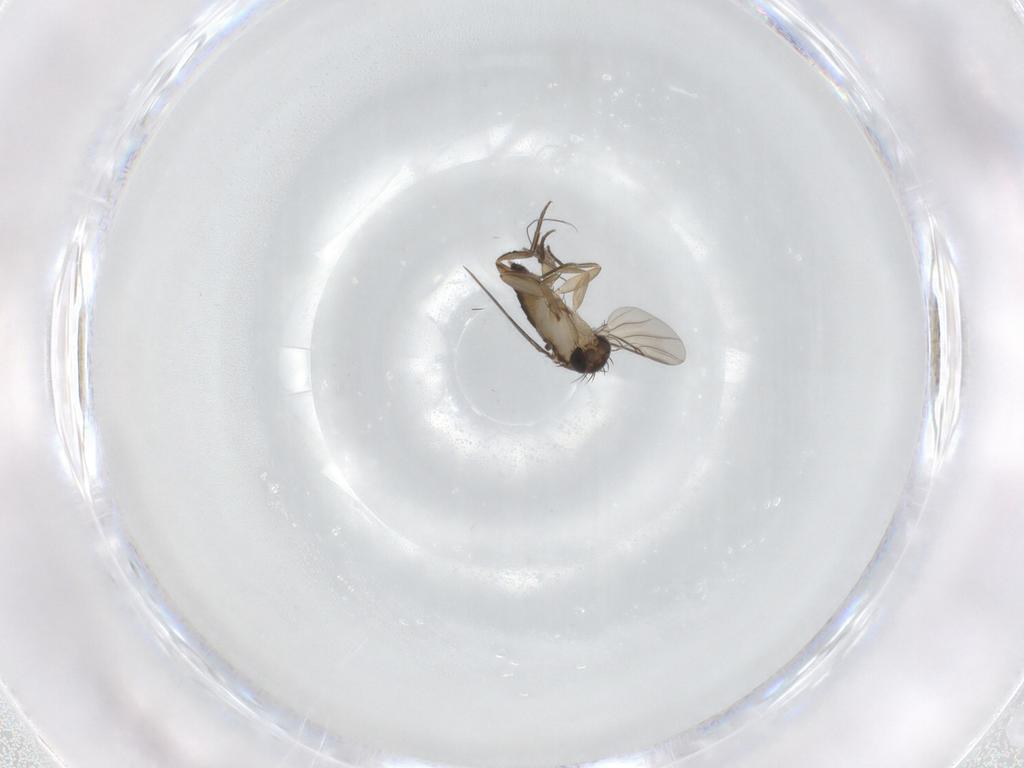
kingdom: Animalia
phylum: Arthropoda
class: Insecta
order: Diptera
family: Phoridae
